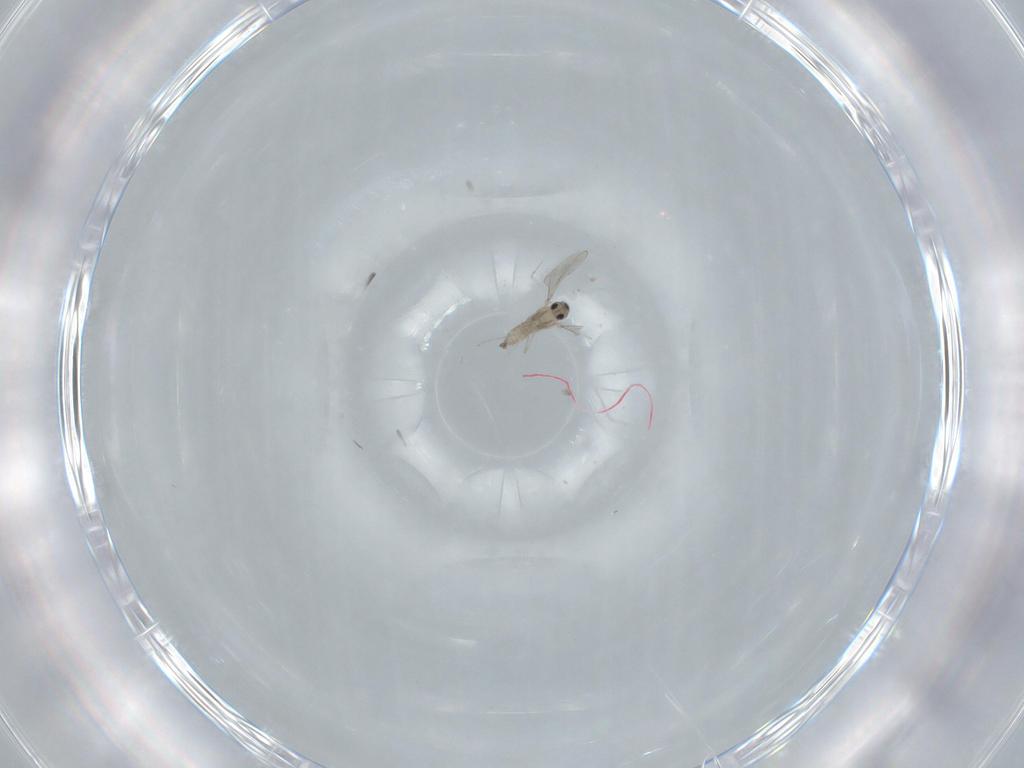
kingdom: Animalia
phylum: Arthropoda
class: Insecta
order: Diptera
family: Cecidomyiidae
